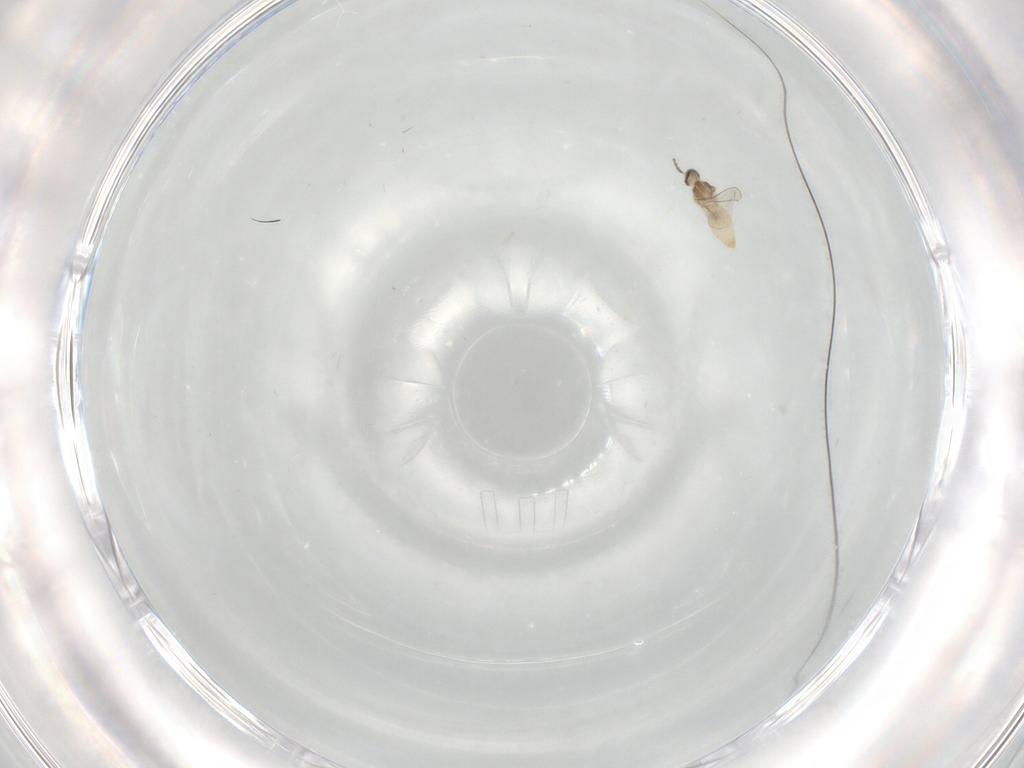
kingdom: Animalia
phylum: Arthropoda
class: Insecta
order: Diptera
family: Cecidomyiidae
